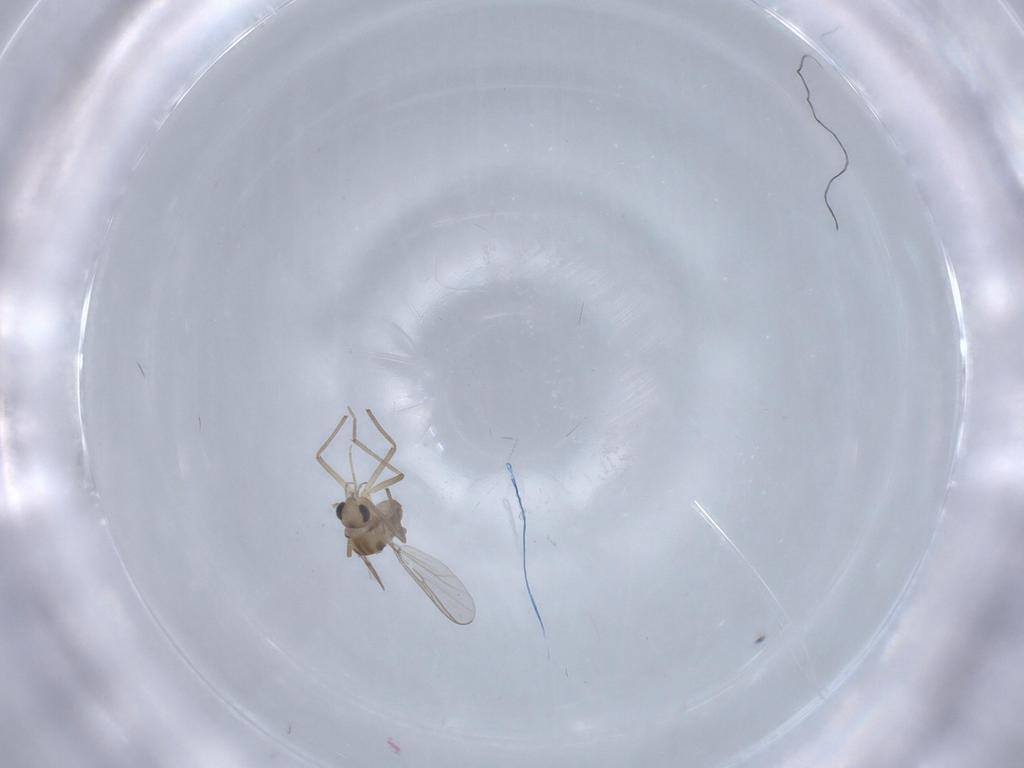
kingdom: Animalia
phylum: Arthropoda
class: Insecta
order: Diptera
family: Chironomidae
